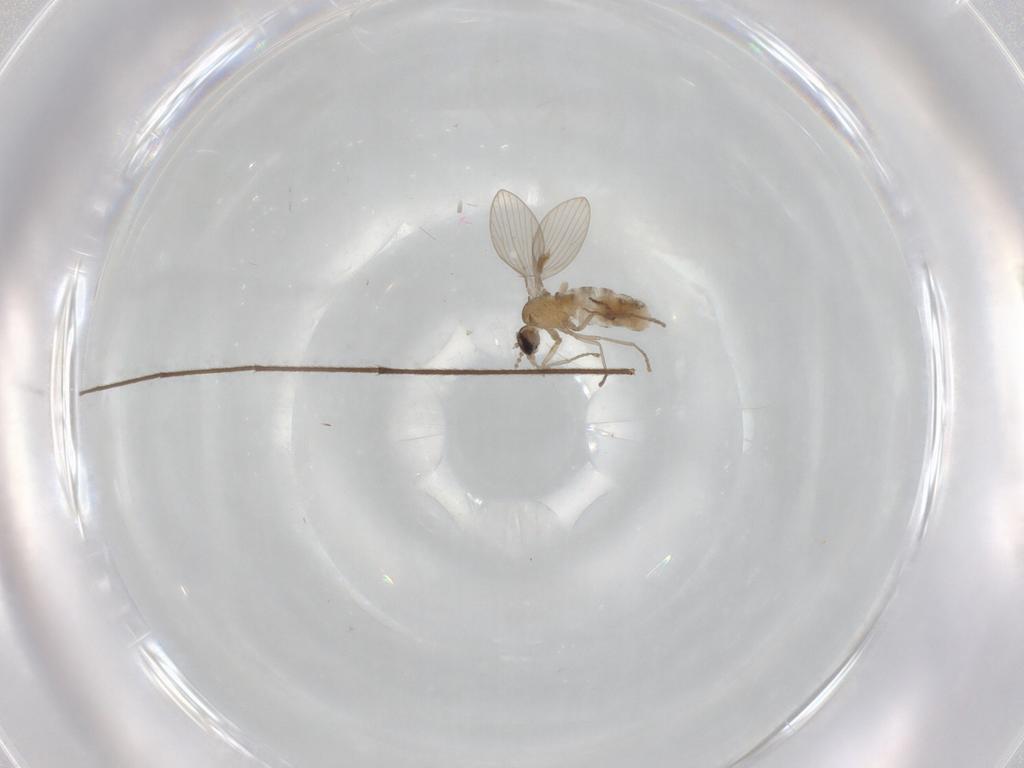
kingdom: Animalia
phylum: Arthropoda
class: Insecta
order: Diptera
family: Psychodidae
